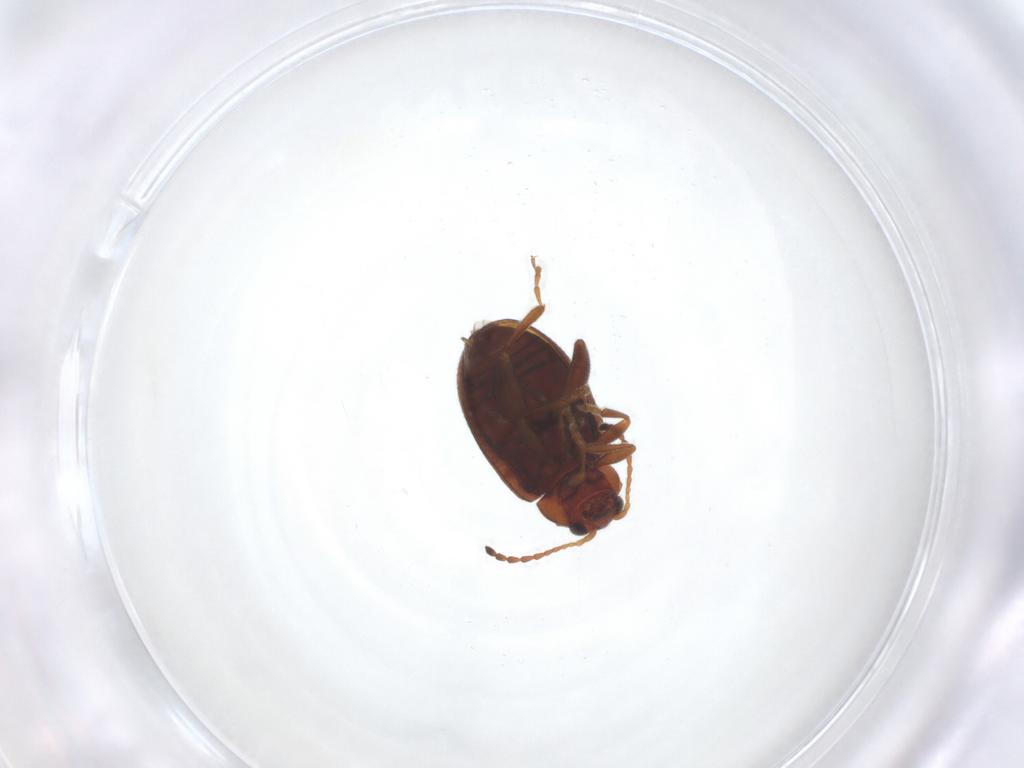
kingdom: Animalia
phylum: Arthropoda
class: Insecta
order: Coleoptera
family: Chrysomelidae
